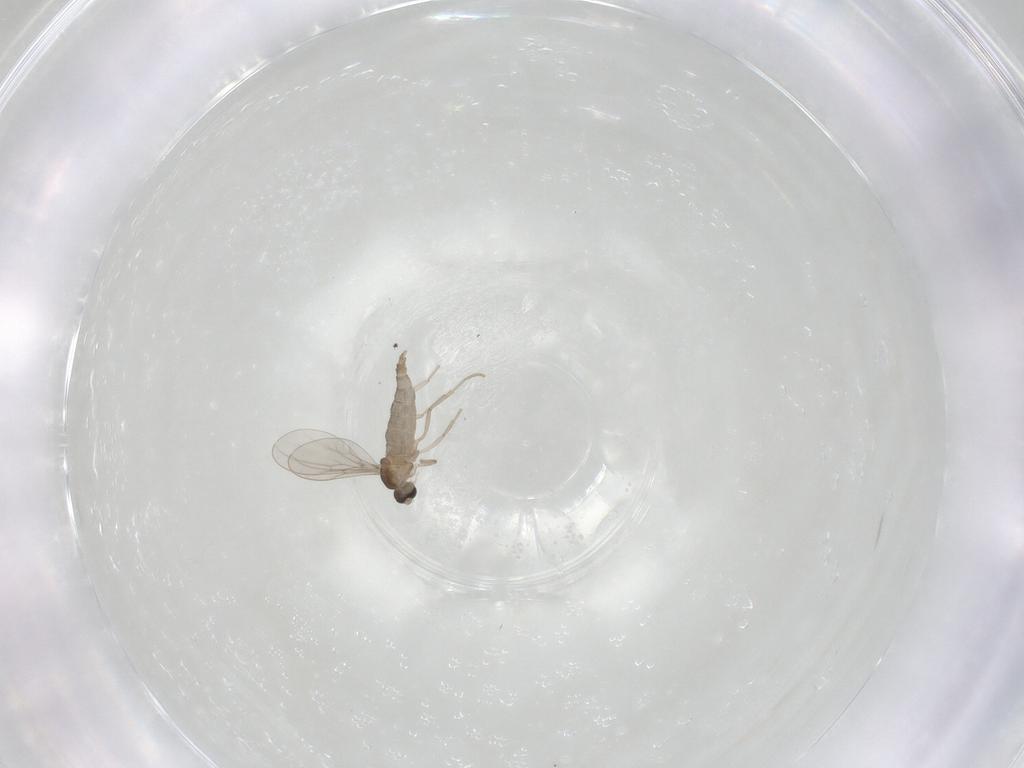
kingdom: Animalia
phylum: Arthropoda
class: Insecta
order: Diptera
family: Cecidomyiidae
